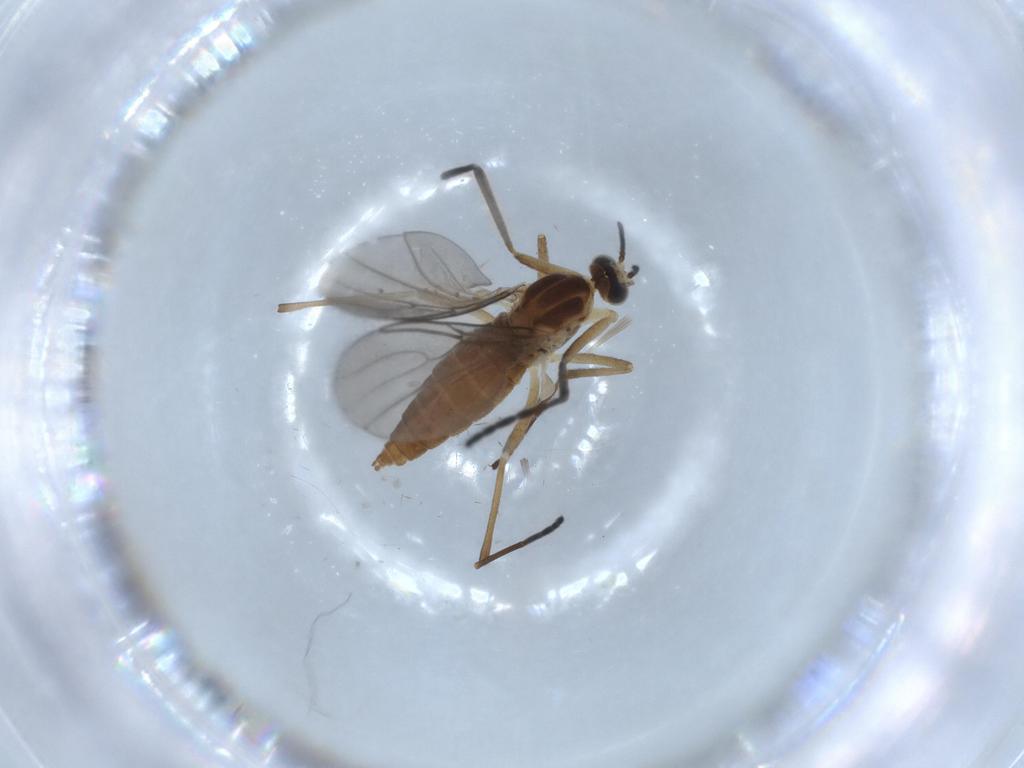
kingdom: Animalia
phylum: Arthropoda
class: Insecta
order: Diptera
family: Cecidomyiidae
